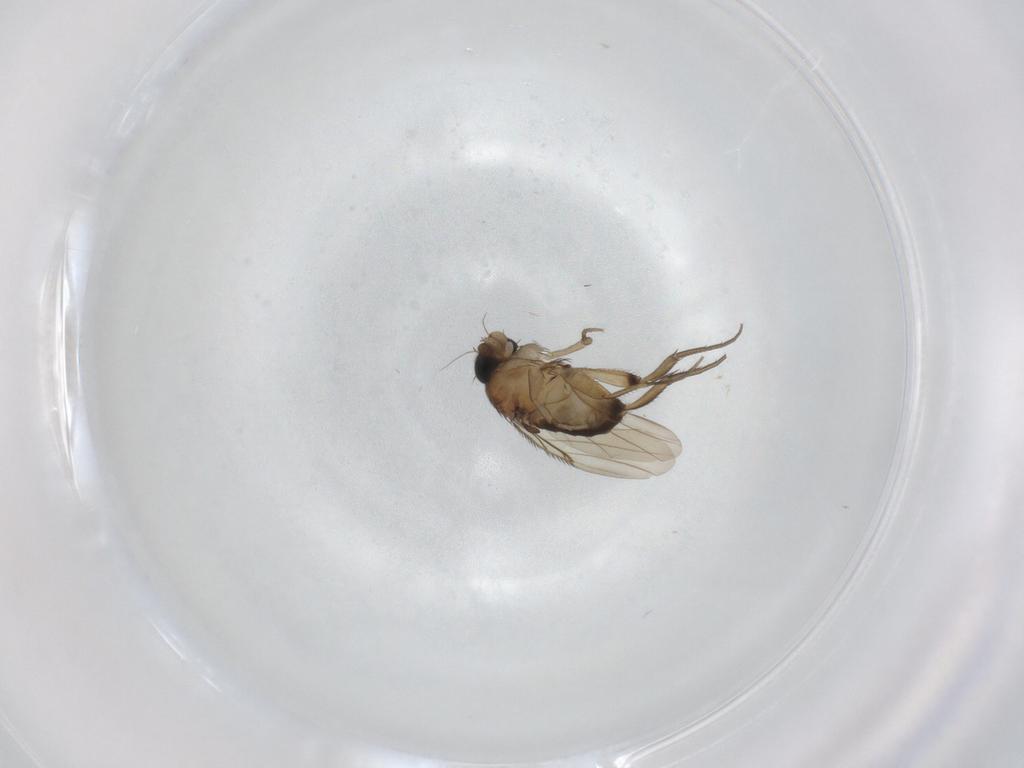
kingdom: Animalia
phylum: Arthropoda
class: Insecta
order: Diptera
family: Phoridae
